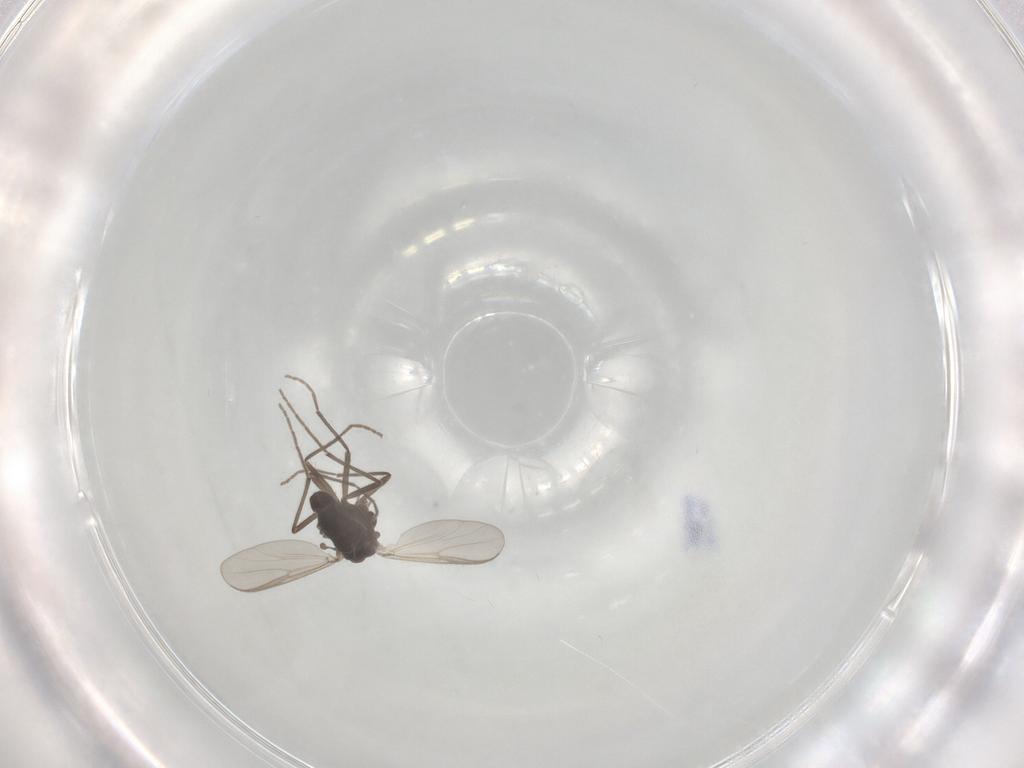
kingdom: Animalia
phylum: Arthropoda
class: Insecta
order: Diptera
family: Chironomidae
